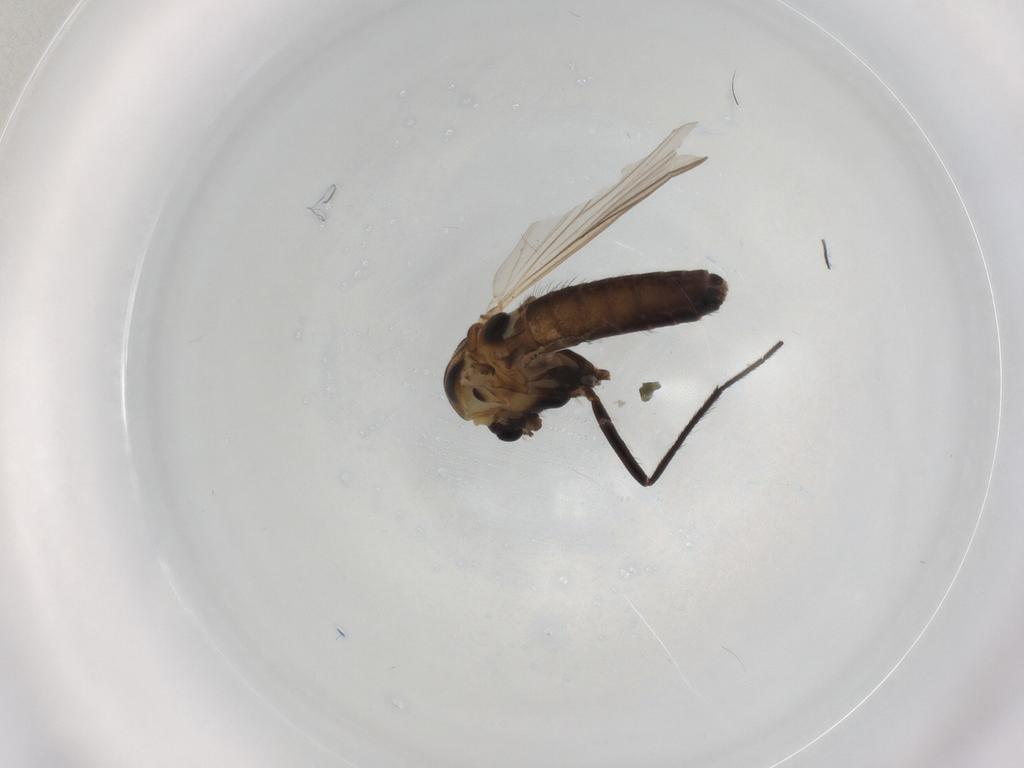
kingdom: Animalia
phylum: Arthropoda
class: Insecta
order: Diptera
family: Chironomidae
